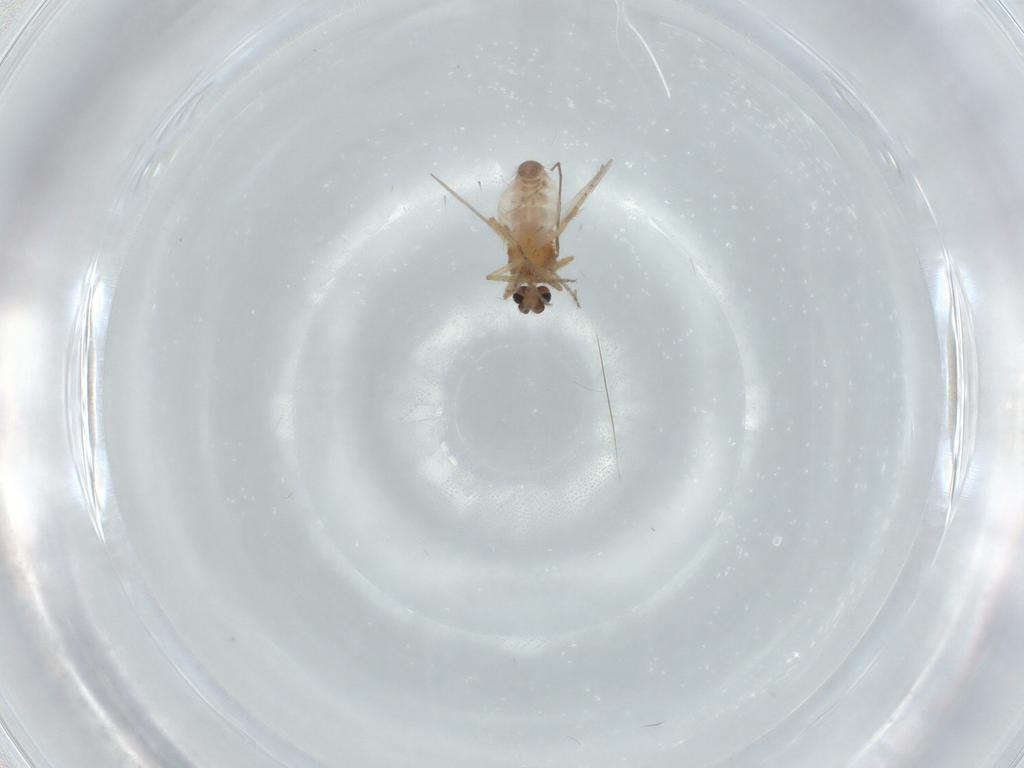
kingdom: Animalia
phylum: Arthropoda
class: Insecta
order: Diptera
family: Ceratopogonidae
